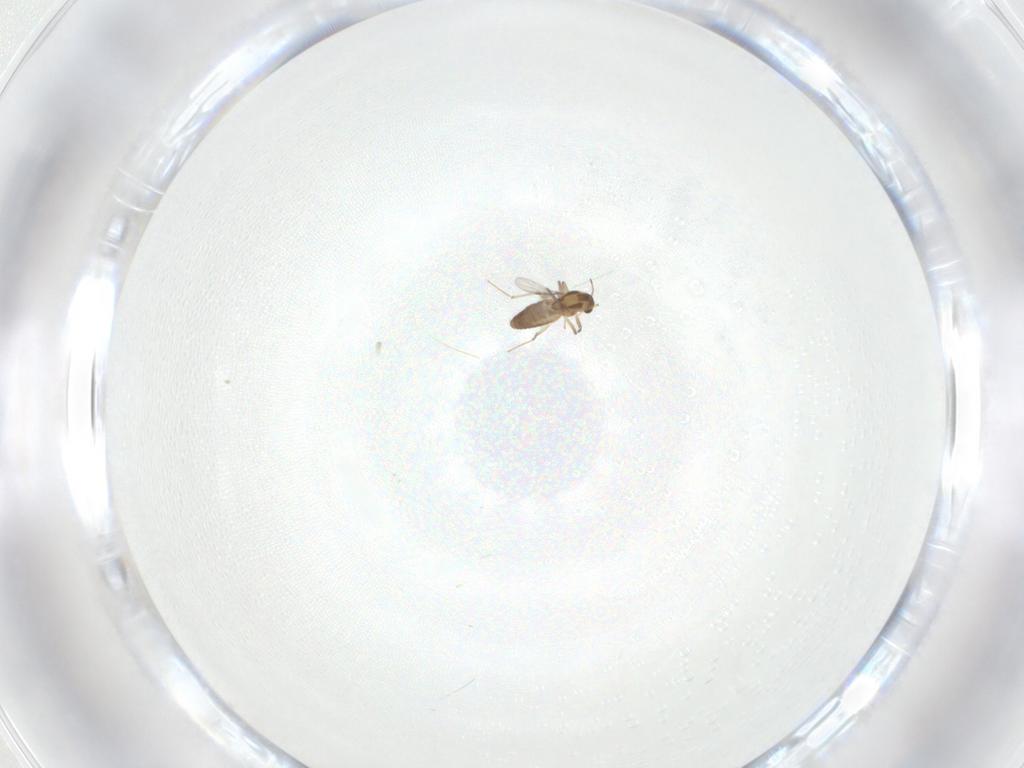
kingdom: Animalia
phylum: Arthropoda
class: Insecta
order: Diptera
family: Chironomidae
